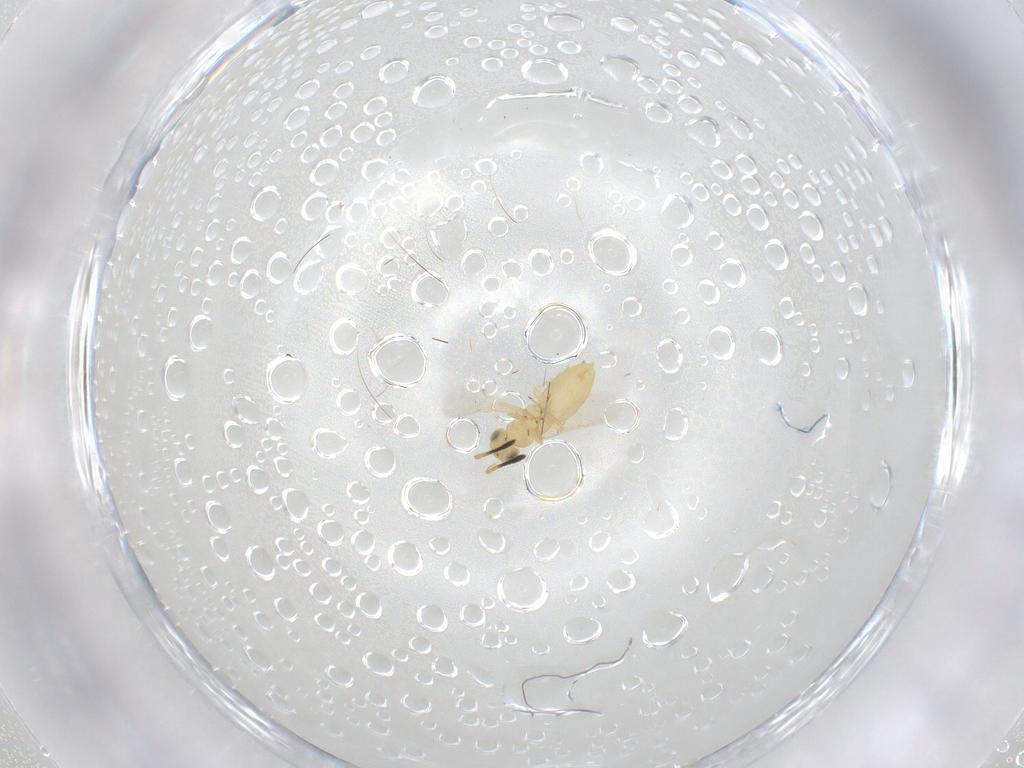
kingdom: Animalia
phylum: Arthropoda
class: Insecta
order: Hymenoptera
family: Encyrtidae
